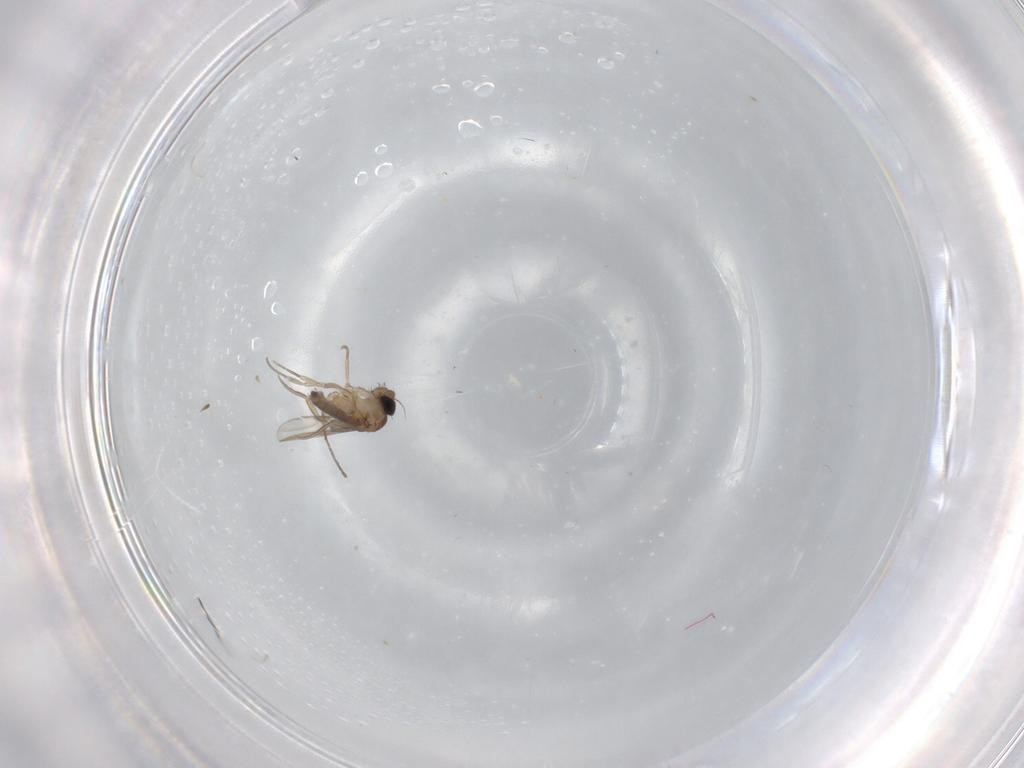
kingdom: Animalia
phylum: Arthropoda
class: Insecta
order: Diptera
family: Phoridae
